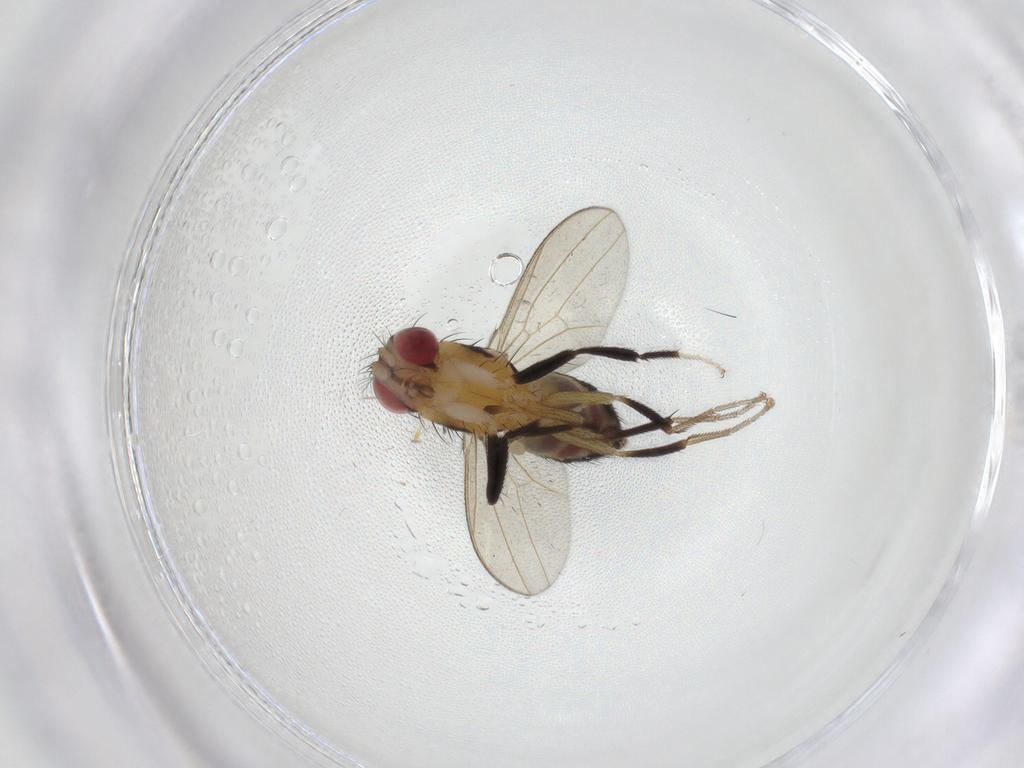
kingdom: Animalia
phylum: Arthropoda
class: Insecta
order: Diptera
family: Drosophilidae
